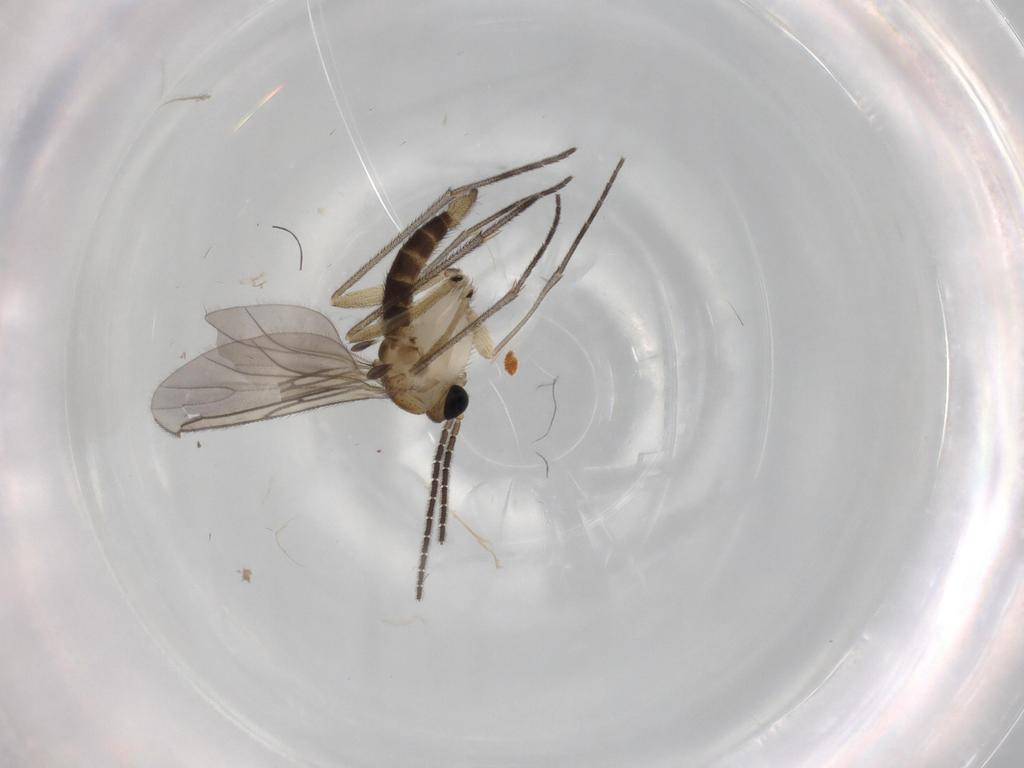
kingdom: Animalia
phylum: Arthropoda
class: Insecta
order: Diptera
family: Sciaridae
